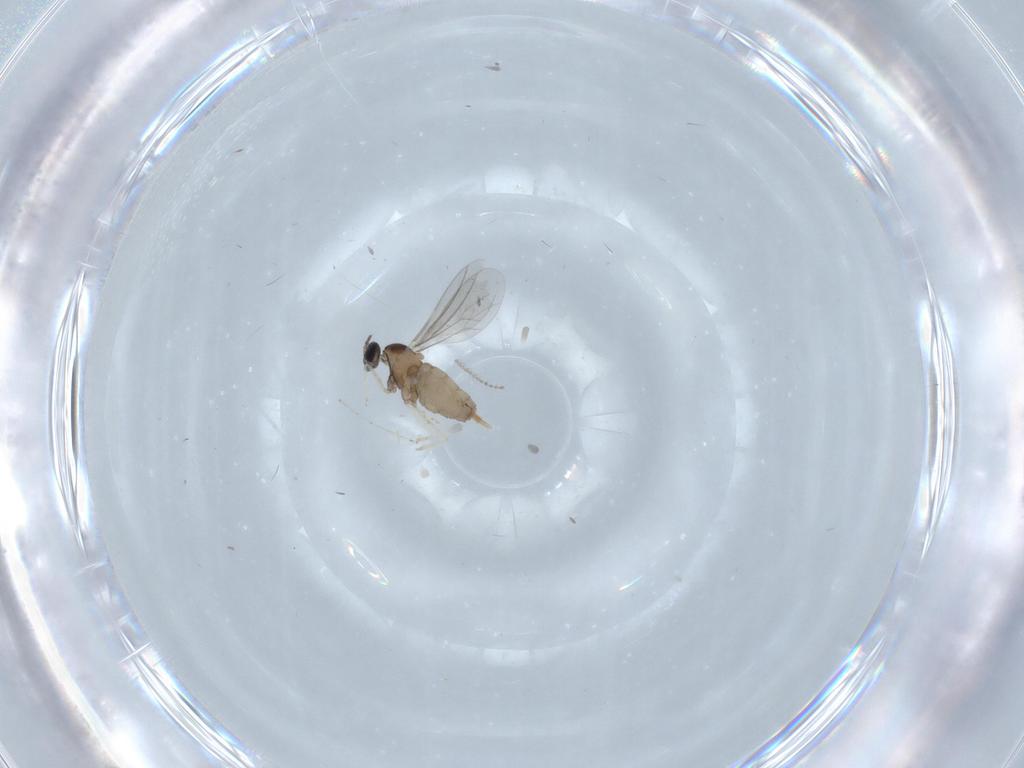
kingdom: Animalia
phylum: Arthropoda
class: Insecta
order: Diptera
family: Ceratopogonidae
